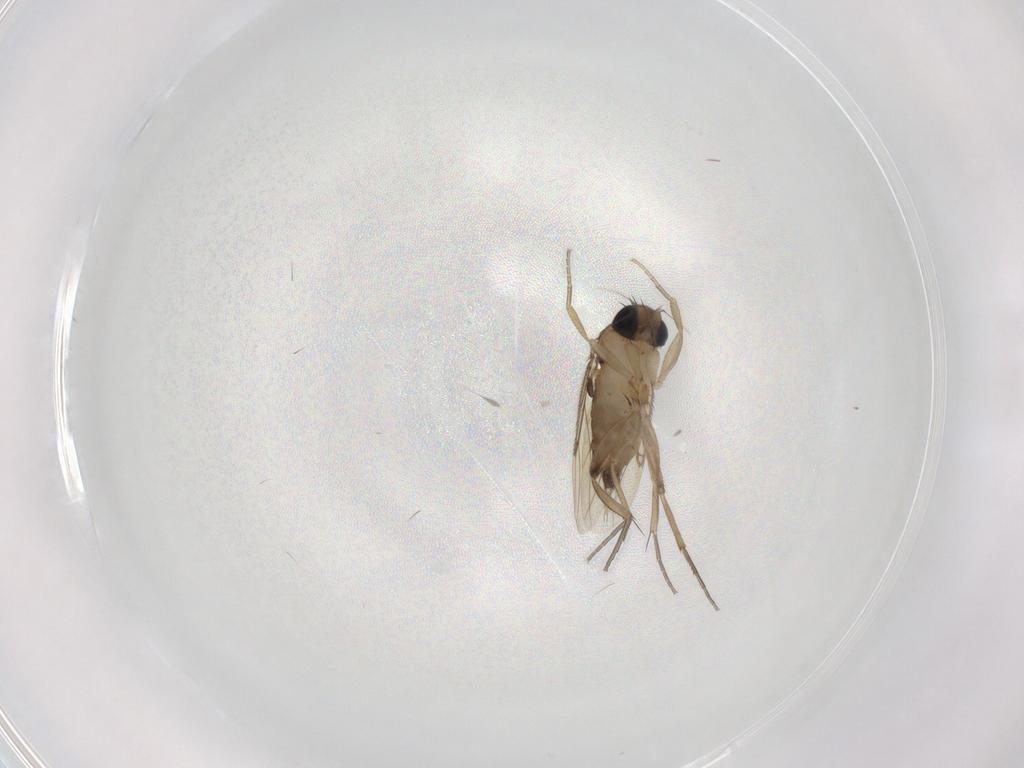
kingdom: Animalia
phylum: Arthropoda
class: Insecta
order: Diptera
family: Phoridae
